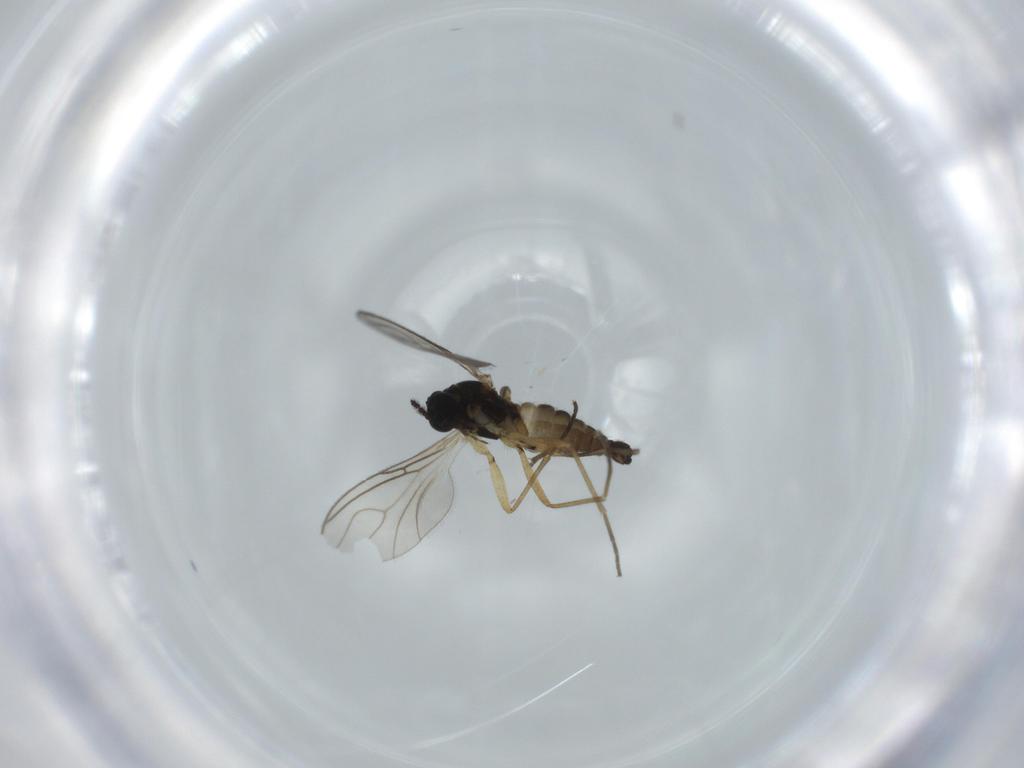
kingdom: Animalia
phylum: Arthropoda
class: Insecta
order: Diptera
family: Sciaridae
